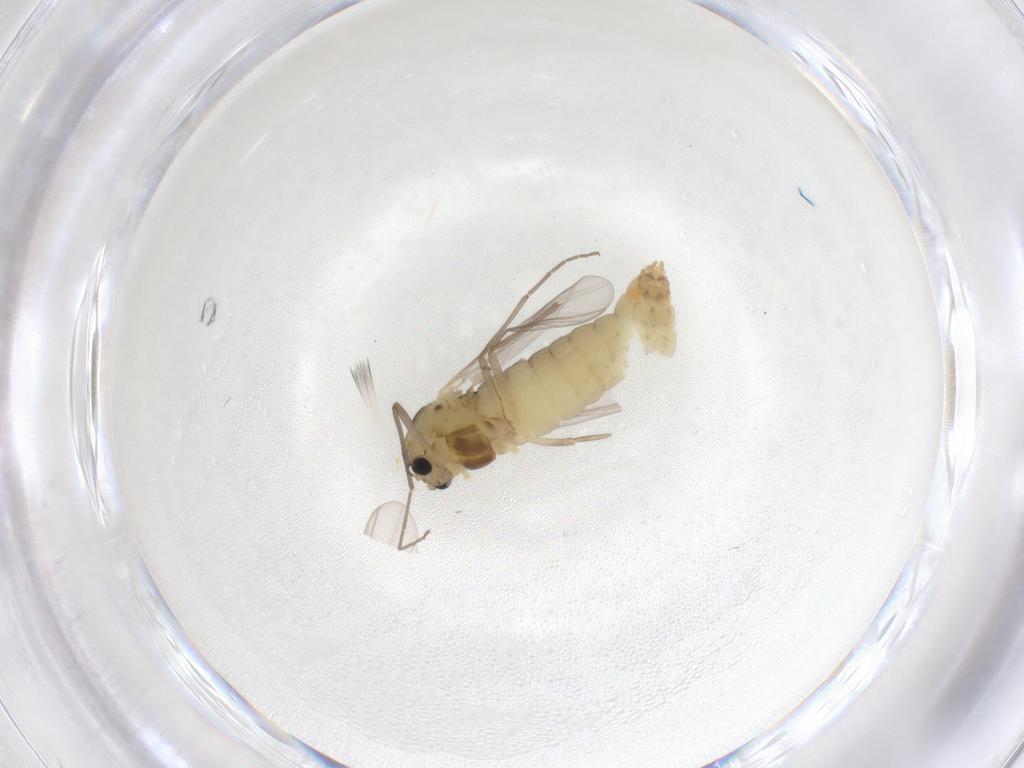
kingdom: Animalia
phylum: Arthropoda
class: Insecta
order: Diptera
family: Chironomidae
